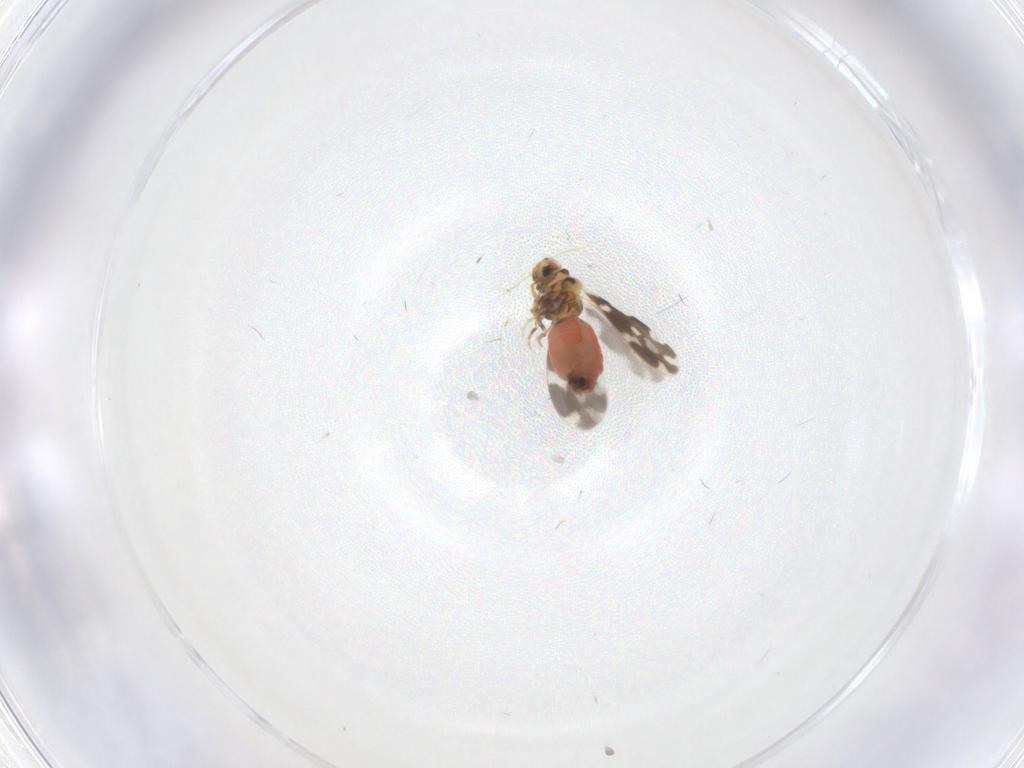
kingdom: Animalia
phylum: Arthropoda
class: Insecta
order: Hemiptera
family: Aleyrodidae
